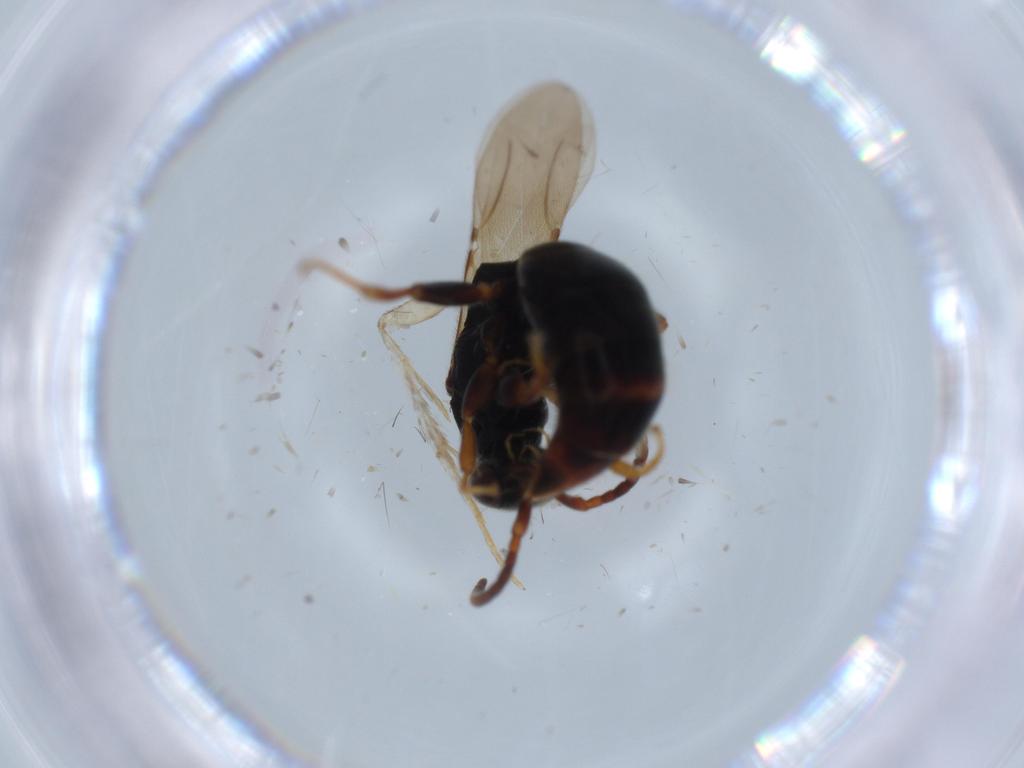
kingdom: Animalia
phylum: Arthropoda
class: Insecta
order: Hymenoptera
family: Bethylidae
